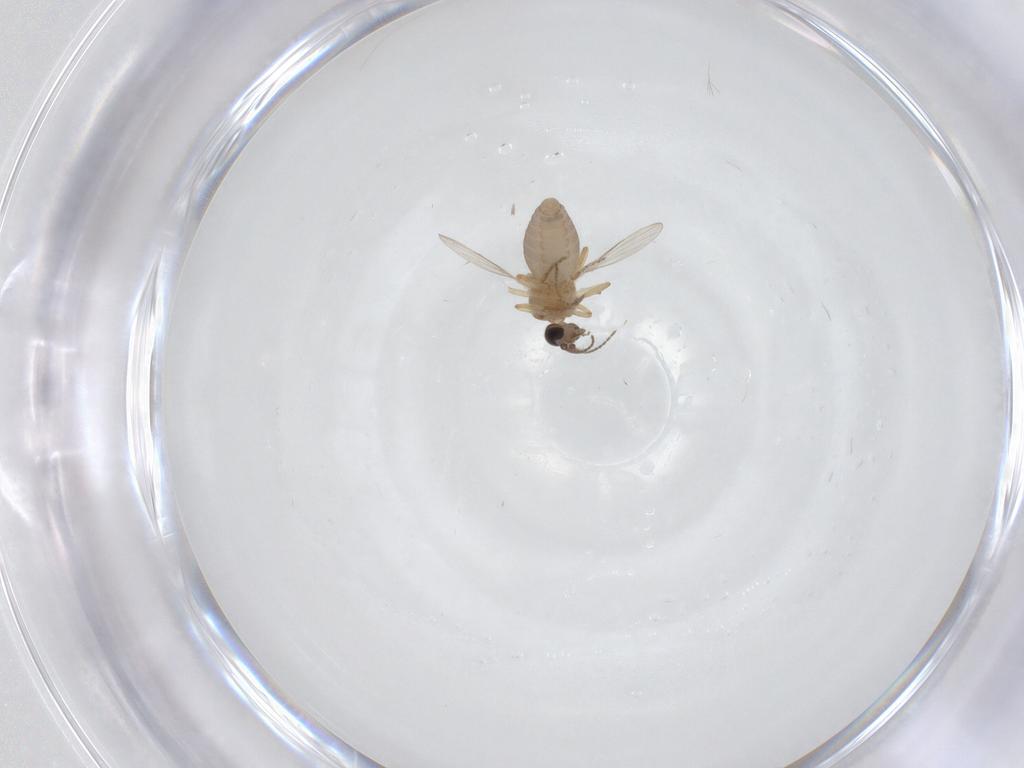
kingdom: Animalia
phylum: Arthropoda
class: Insecta
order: Diptera
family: Ceratopogonidae
